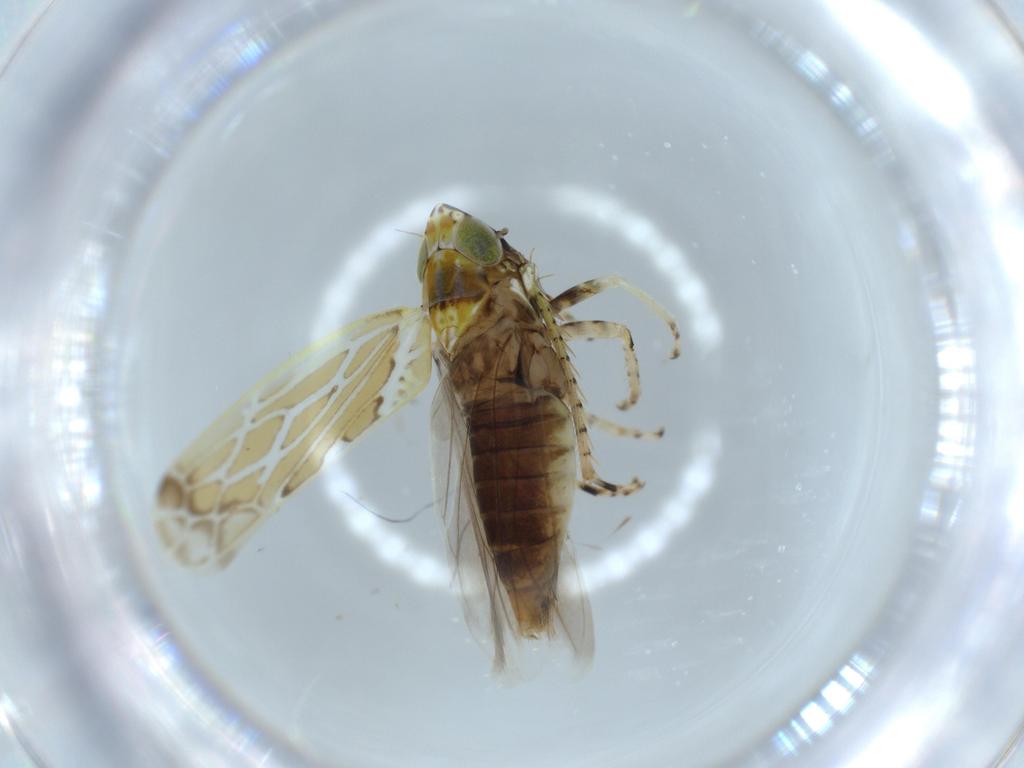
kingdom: Animalia
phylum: Arthropoda
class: Insecta
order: Hemiptera
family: Cicadellidae
